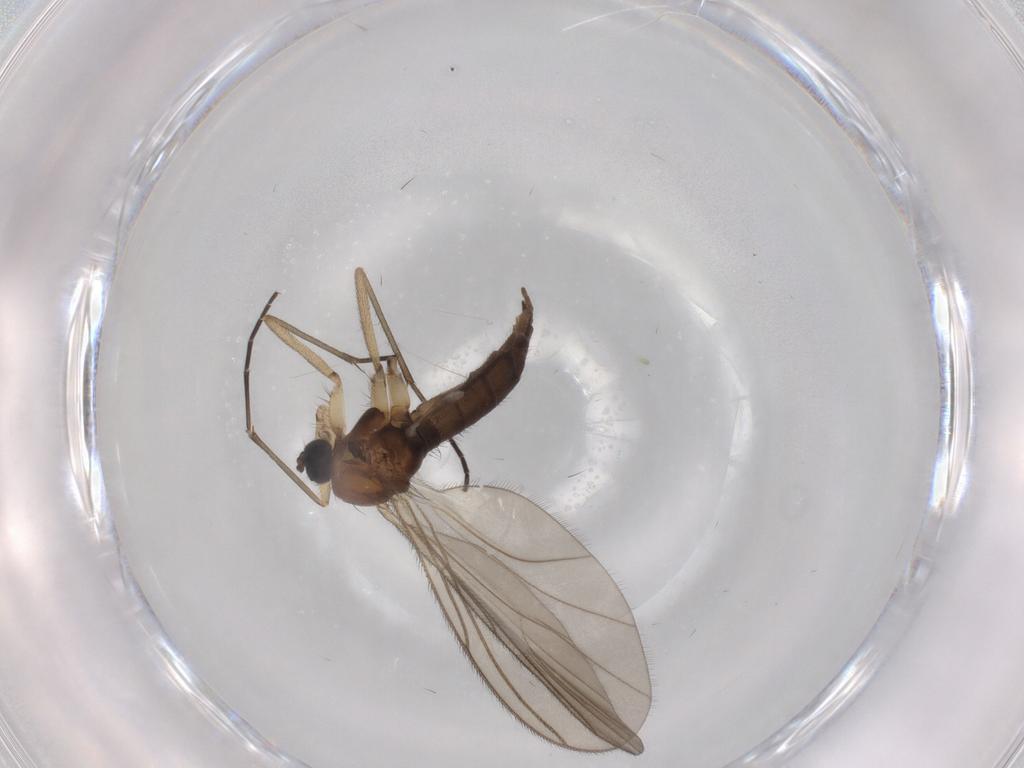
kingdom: Animalia
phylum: Arthropoda
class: Insecta
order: Diptera
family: Sciaridae
